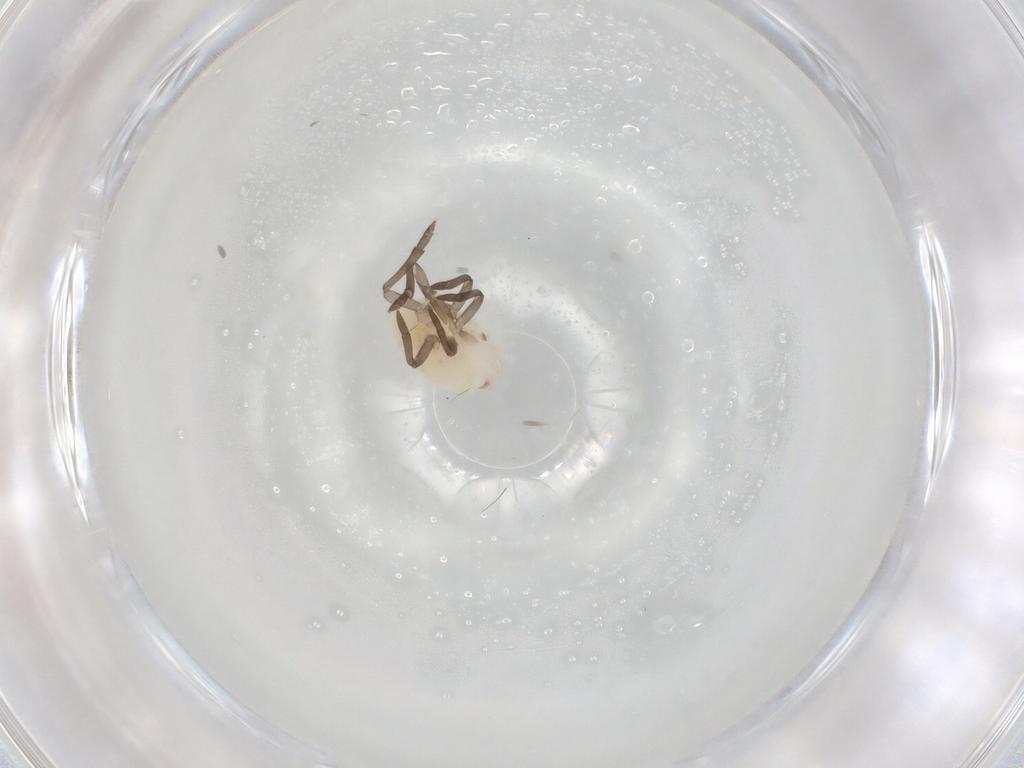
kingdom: Animalia
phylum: Arthropoda
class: Insecta
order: Hemiptera
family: Fulgoroidea_incertae_sedis
